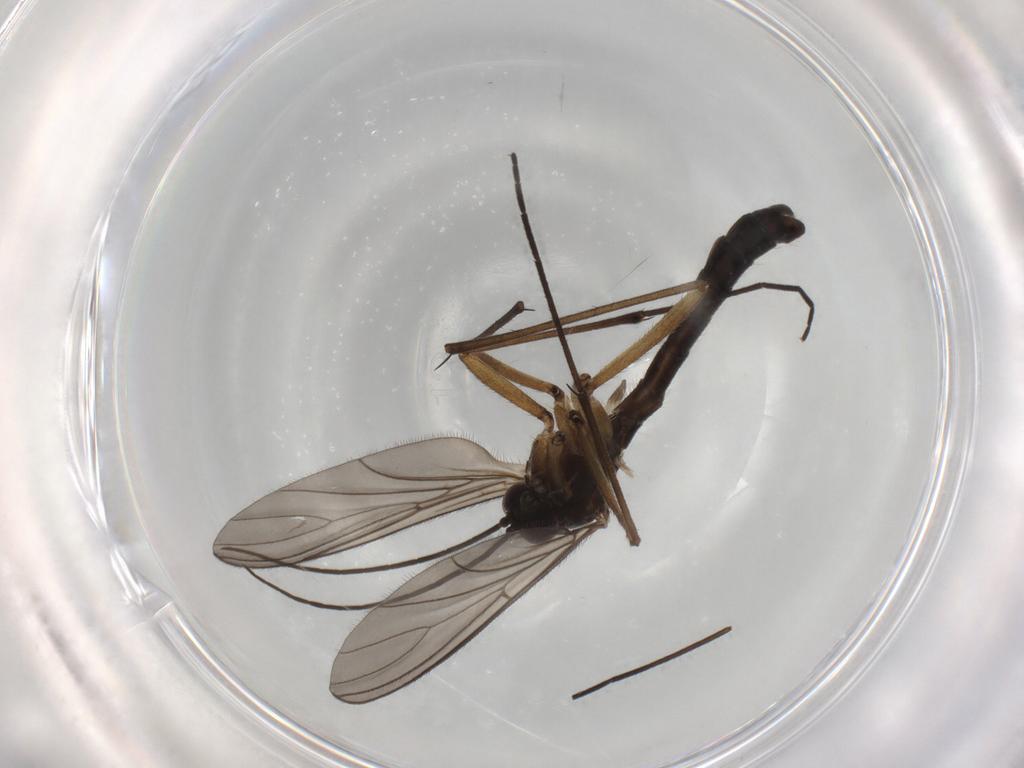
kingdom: Animalia
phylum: Arthropoda
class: Insecta
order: Diptera
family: Psychodidae
